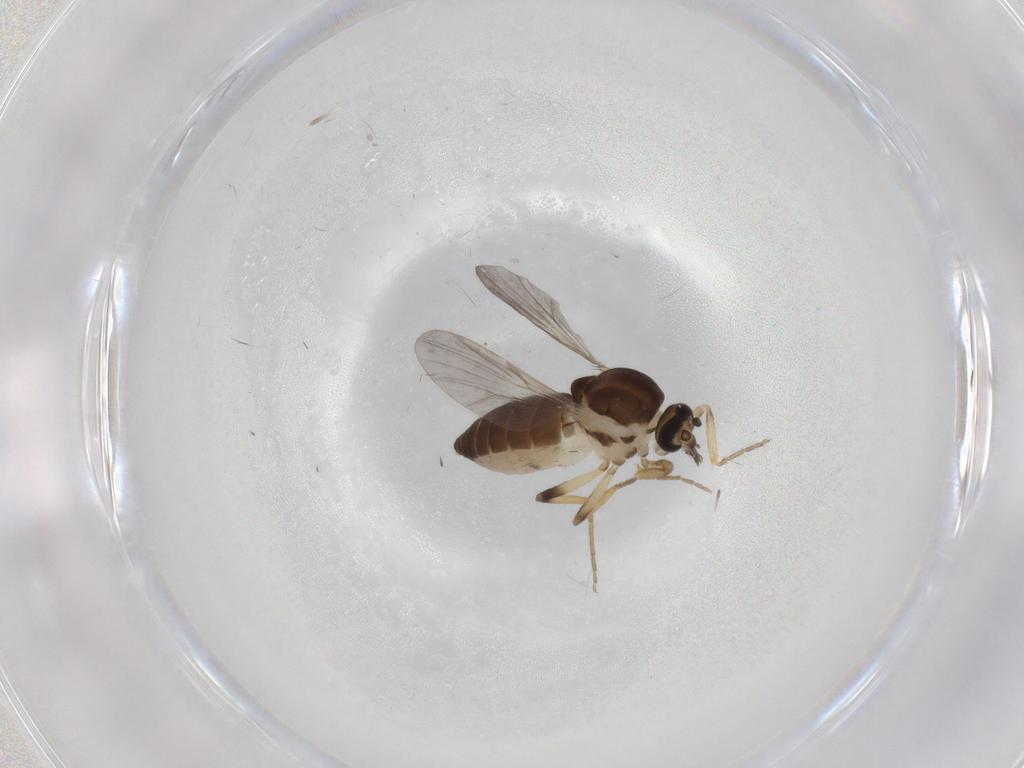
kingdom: Animalia
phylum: Arthropoda
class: Insecta
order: Diptera
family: Ceratopogonidae
